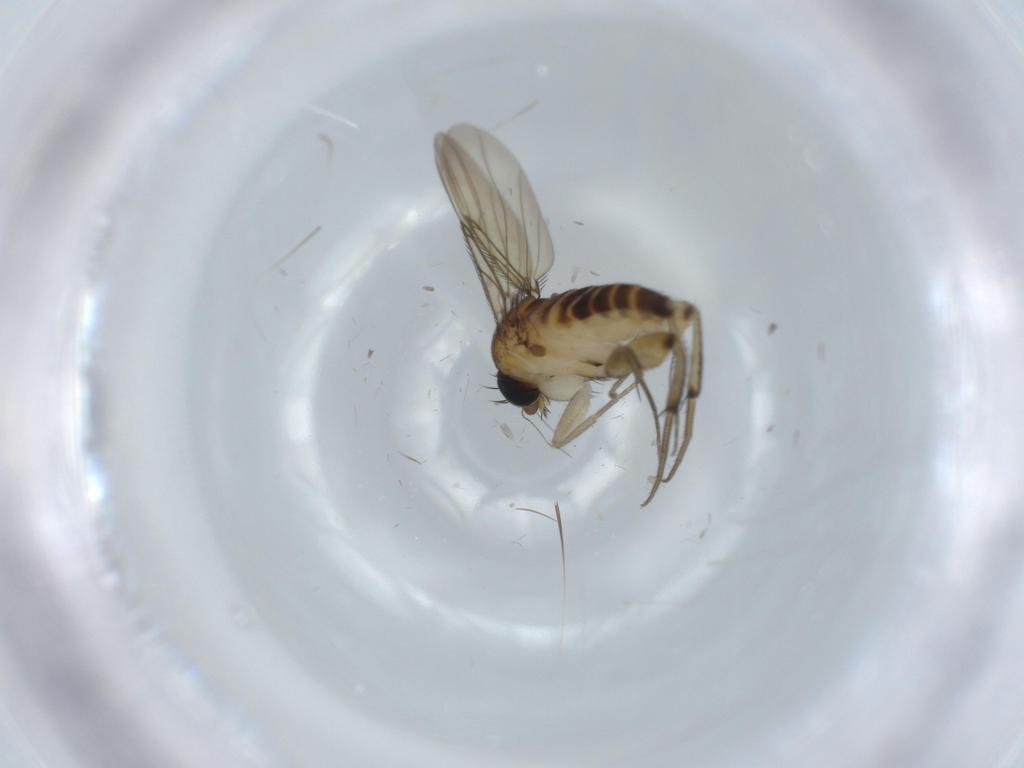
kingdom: Animalia
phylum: Arthropoda
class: Insecta
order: Diptera
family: Phoridae
